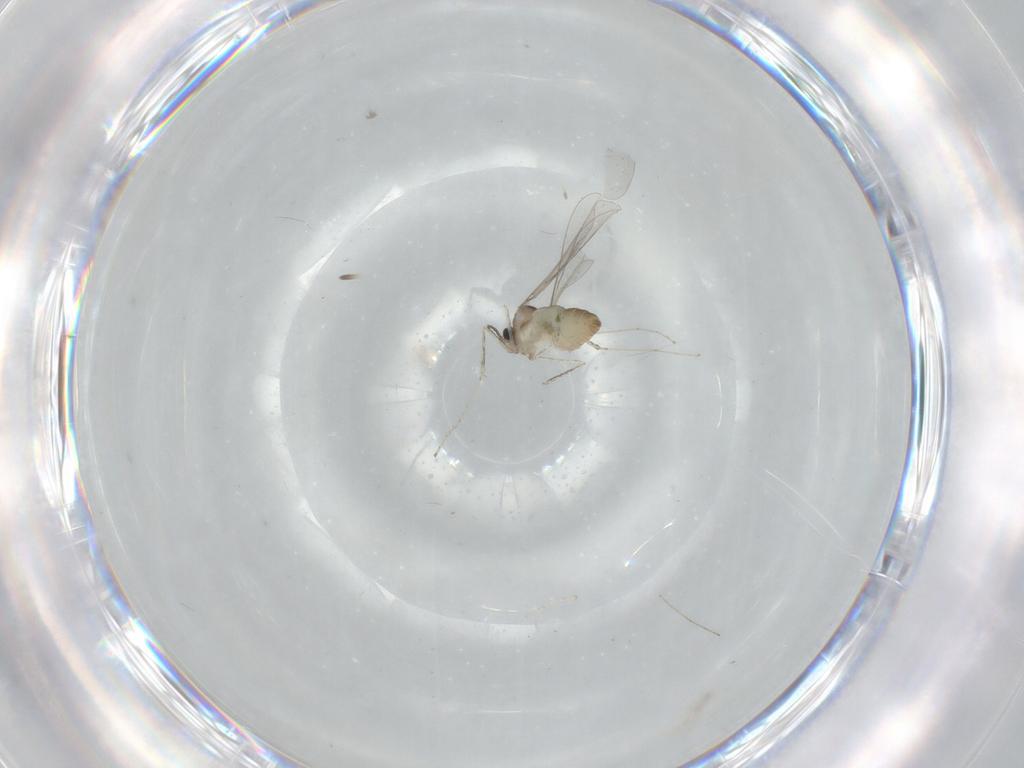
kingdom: Animalia
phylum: Arthropoda
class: Insecta
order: Diptera
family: Cecidomyiidae
